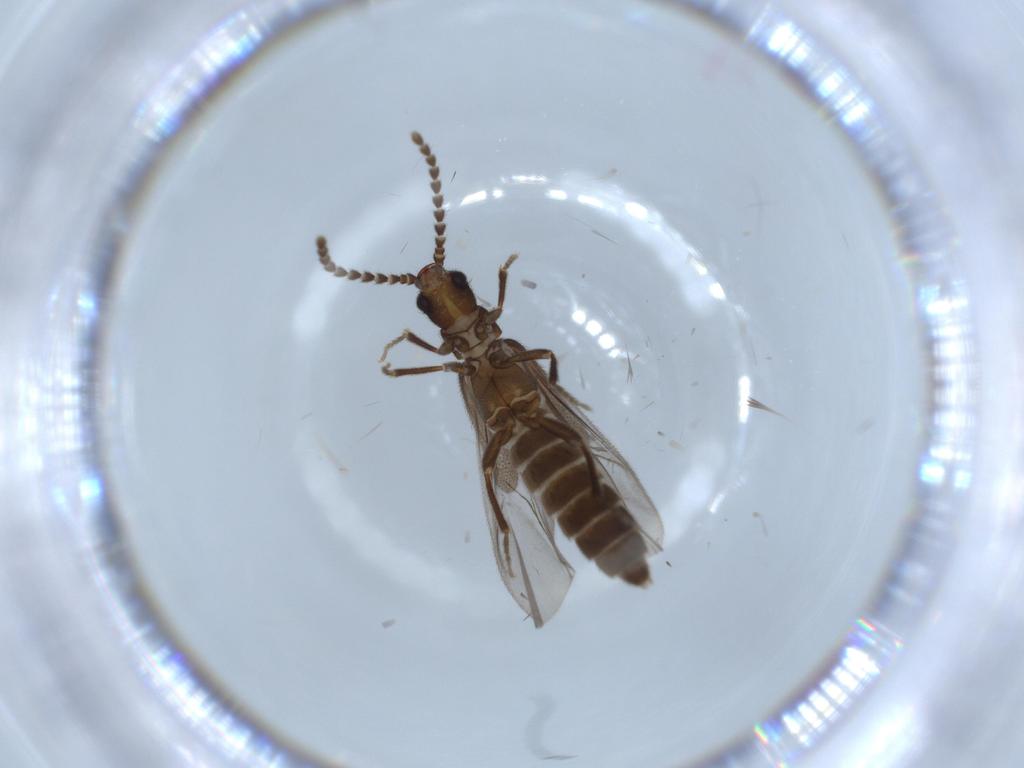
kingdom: Animalia
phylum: Arthropoda
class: Insecta
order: Coleoptera
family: Omethidae
